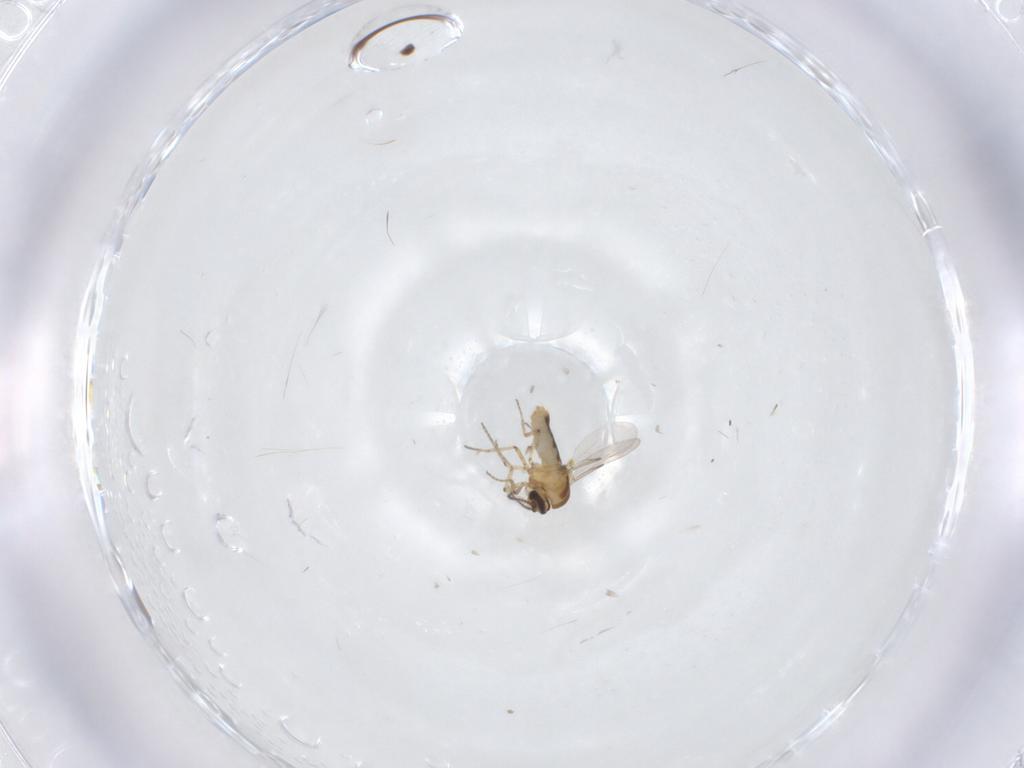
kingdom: Animalia
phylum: Arthropoda
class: Insecta
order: Diptera
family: Ceratopogonidae
